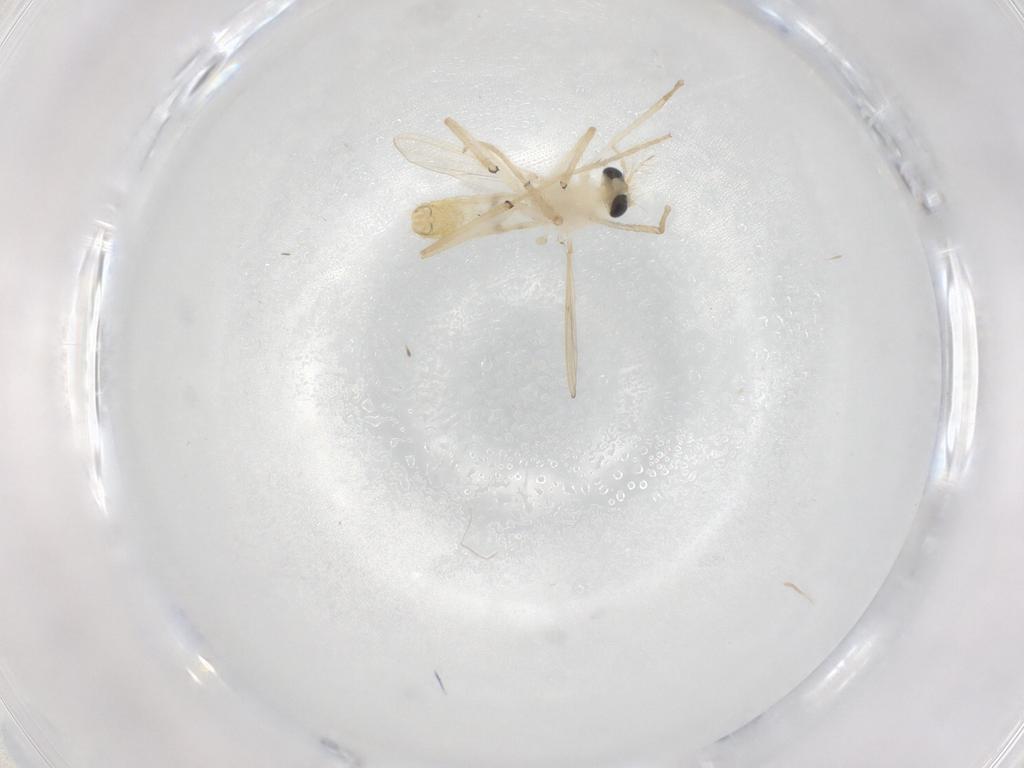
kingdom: Animalia
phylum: Arthropoda
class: Insecta
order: Diptera
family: Chironomidae
